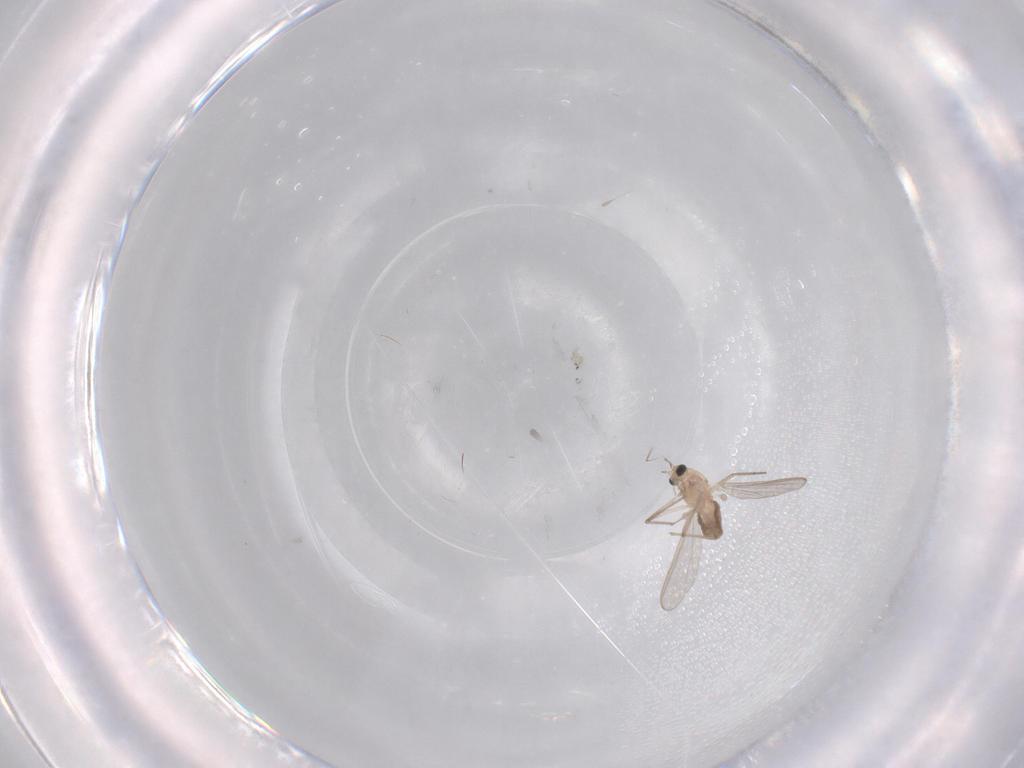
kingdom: Animalia
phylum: Arthropoda
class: Insecta
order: Diptera
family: Chironomidae
